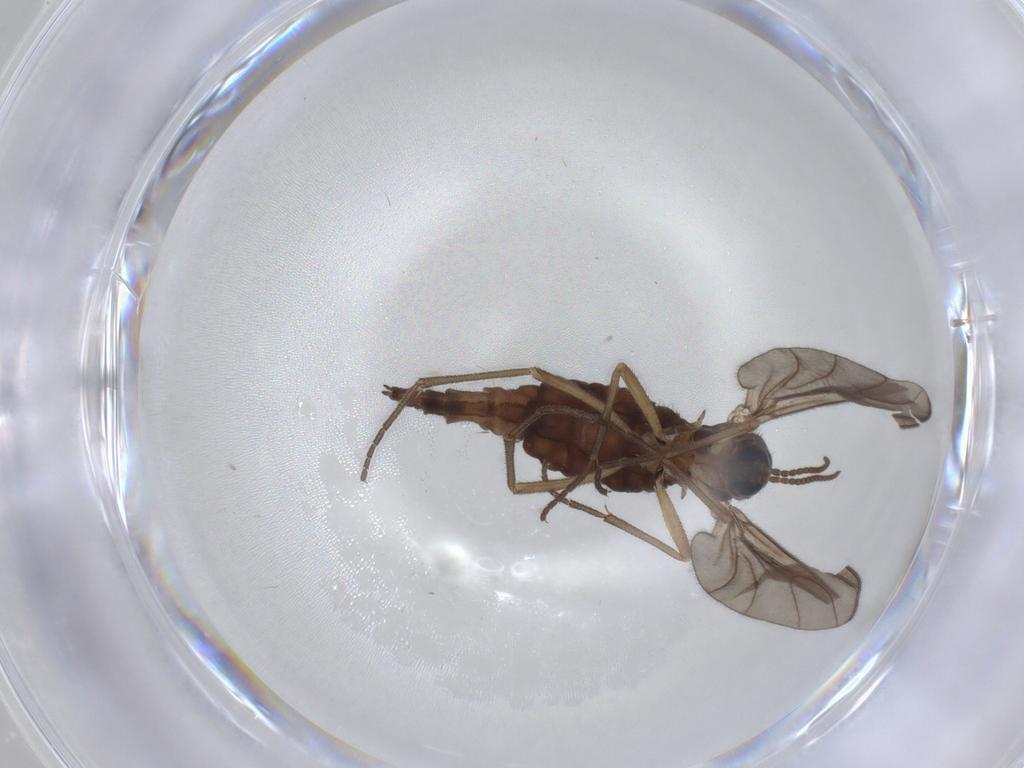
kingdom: Animalia
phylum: Arthropoda
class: Insecta
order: Diptera
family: Sciaridae
